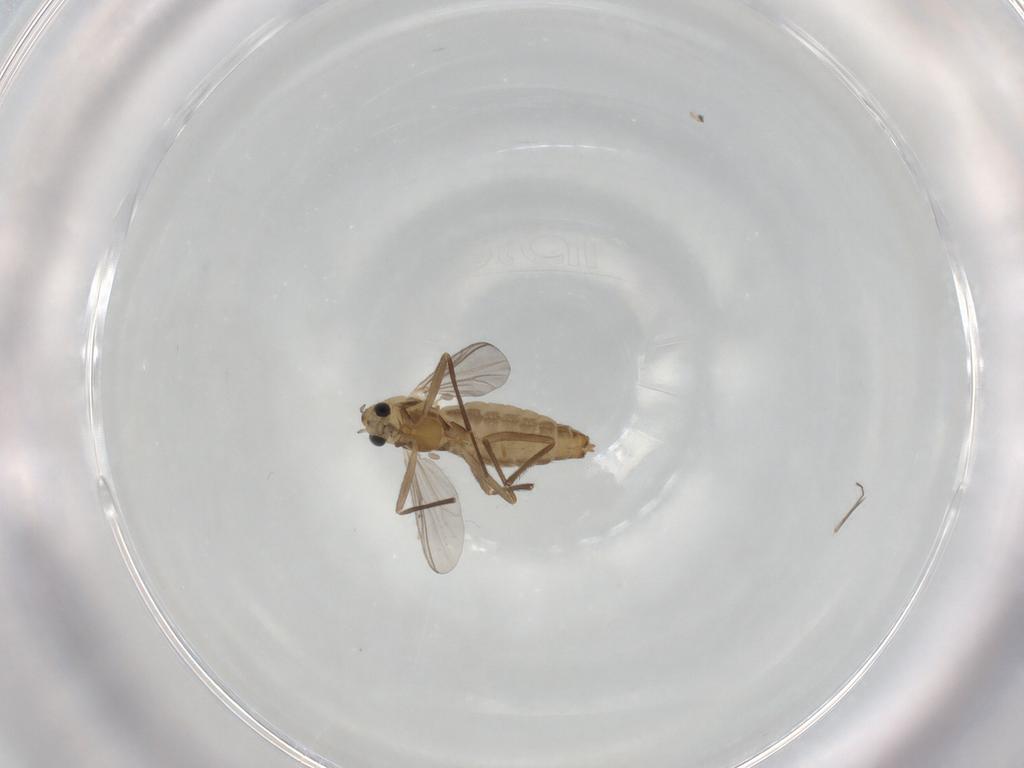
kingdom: Animalia
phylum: Arthropoda
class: Insecta
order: Diptera
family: Chironomidae
